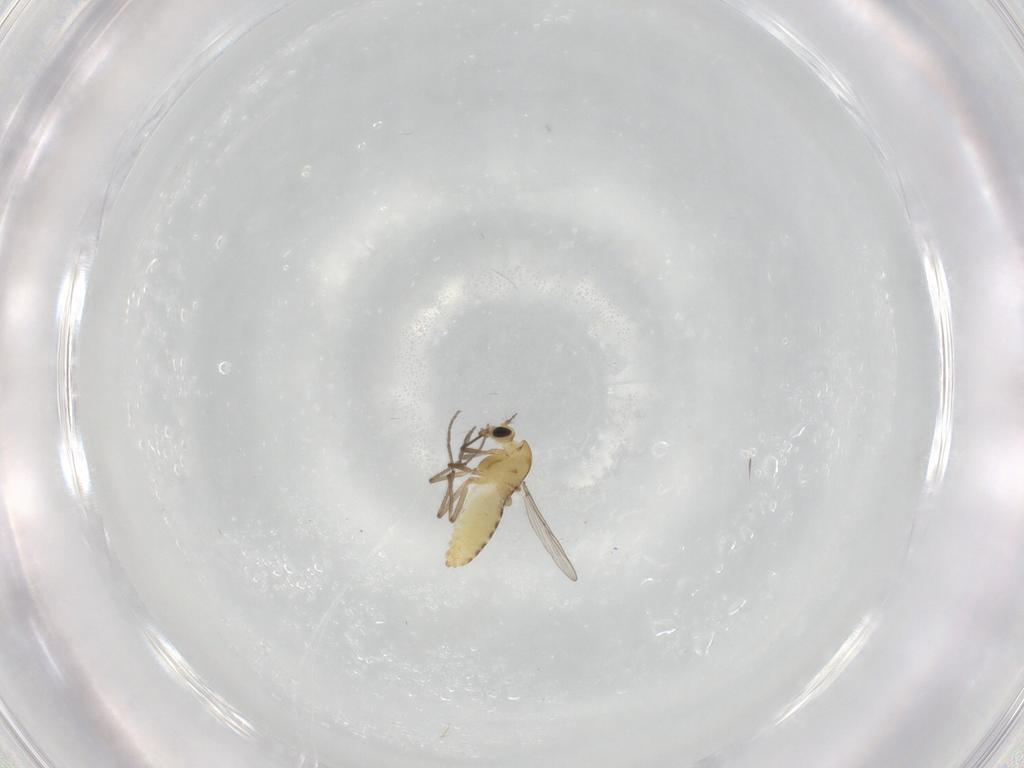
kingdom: Animalia
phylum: Arthropoda
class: Insecta
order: Diptera
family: Chironomidae
